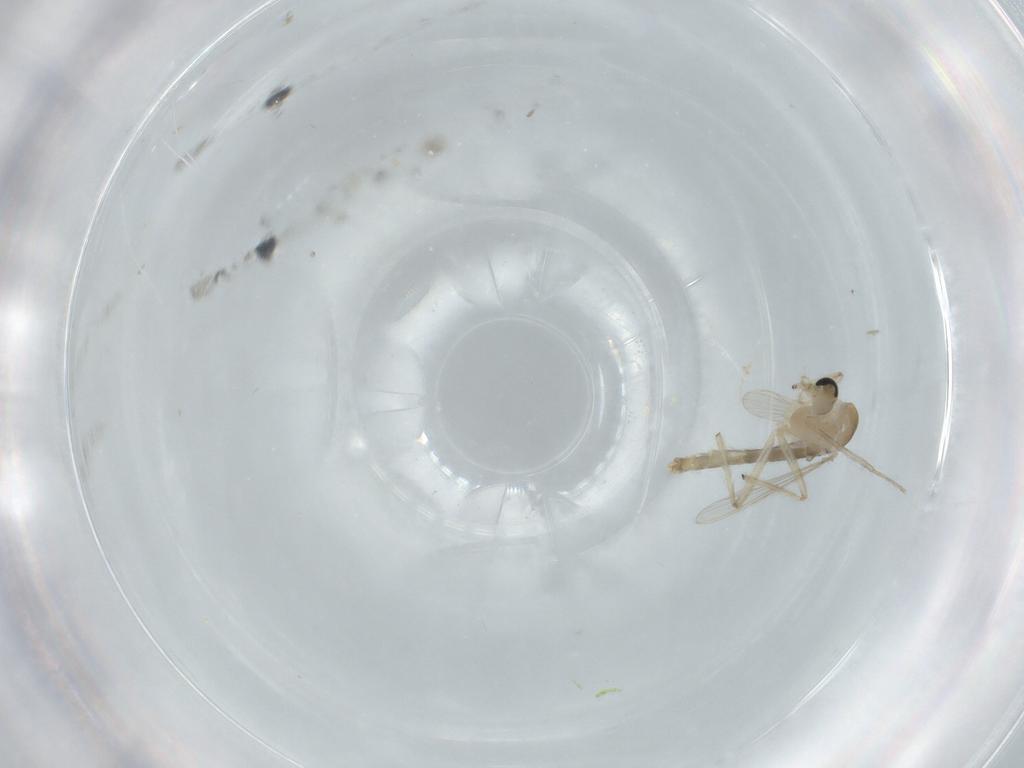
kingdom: Animalia
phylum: Arthropoda
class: Insecta
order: Diptera
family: Chironomidae
